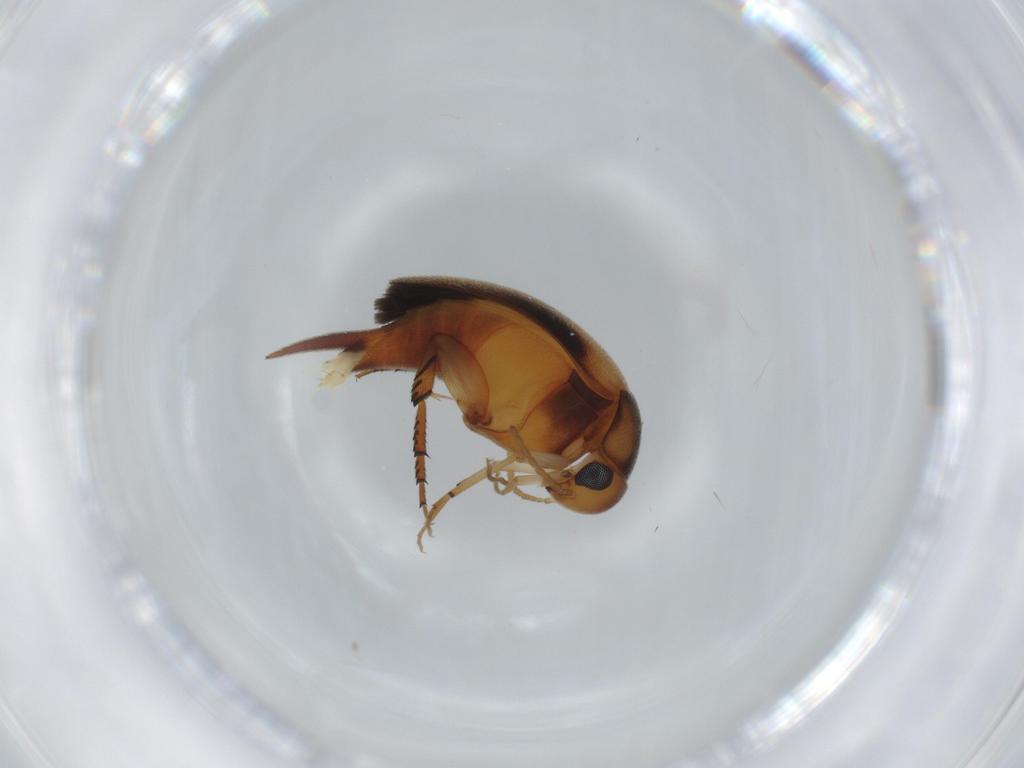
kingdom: Animalia
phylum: Arthropoda
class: Insecta
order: Coleoptera
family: Mordellidae
